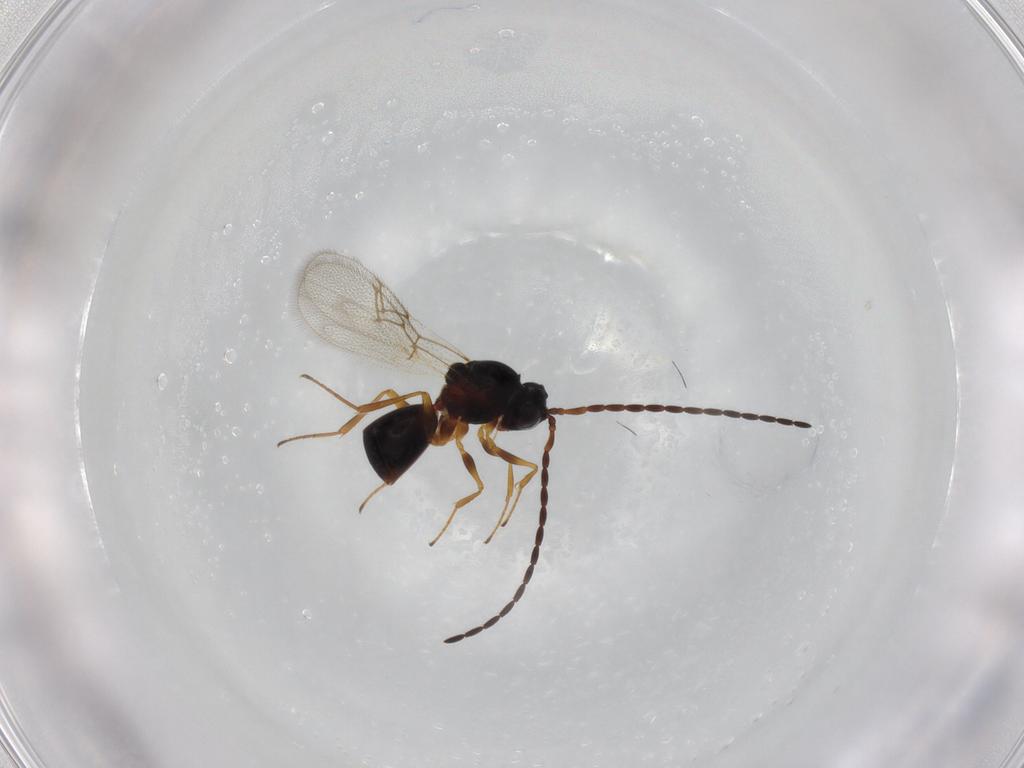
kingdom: Animalia
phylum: Arthropoda
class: Insecta
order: Hymenoptera
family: Figitidae
